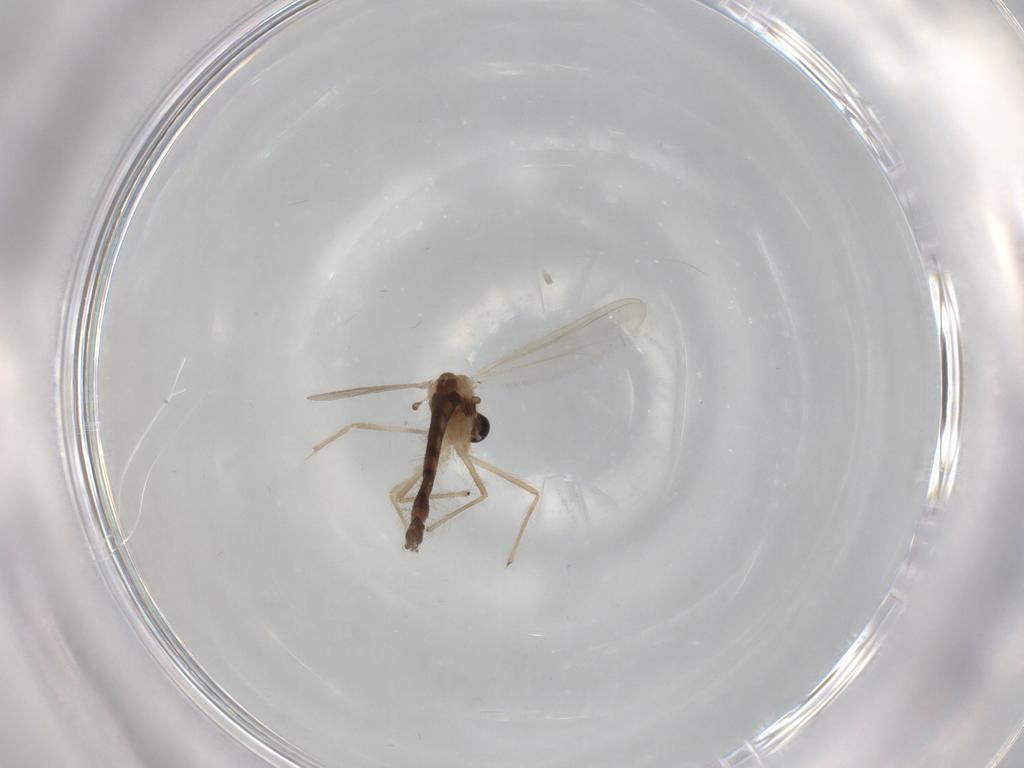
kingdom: Animalia
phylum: Arthropoda
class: Insecta
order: Diptera
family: Chironomidae
